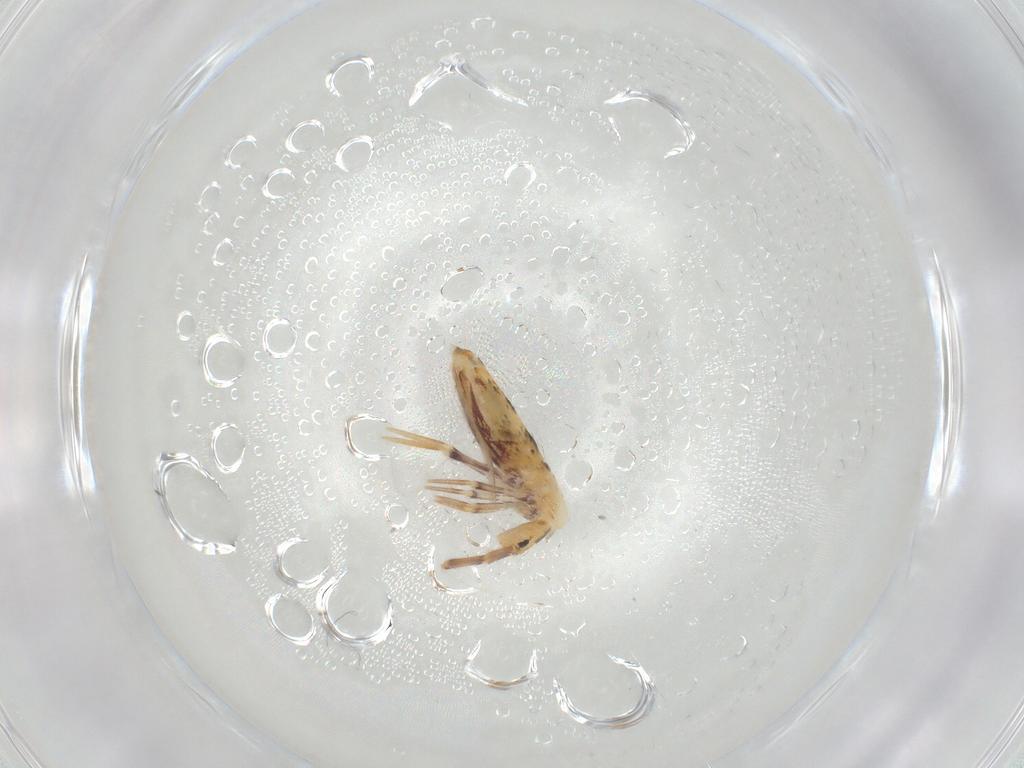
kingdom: Animalia
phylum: Arthropoda
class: Collembola
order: Poduromorpha
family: Hypogastruridae
